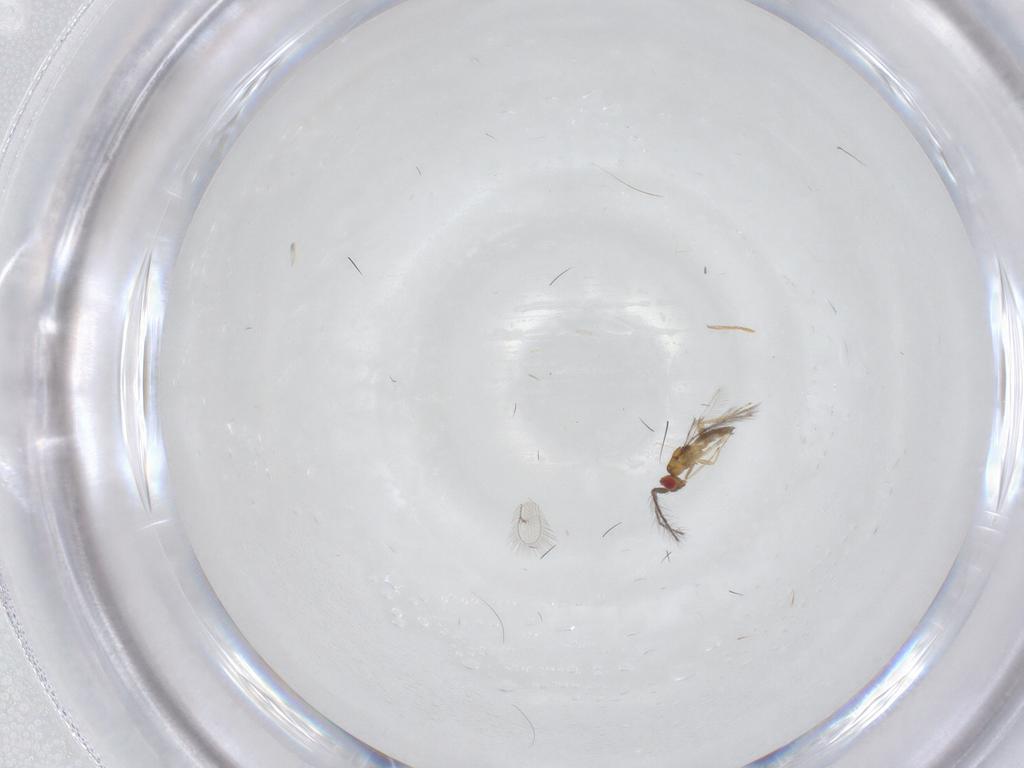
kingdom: Animalia
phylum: Arthropoda
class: Insecta
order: Hymenoptera
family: Eulophidae
